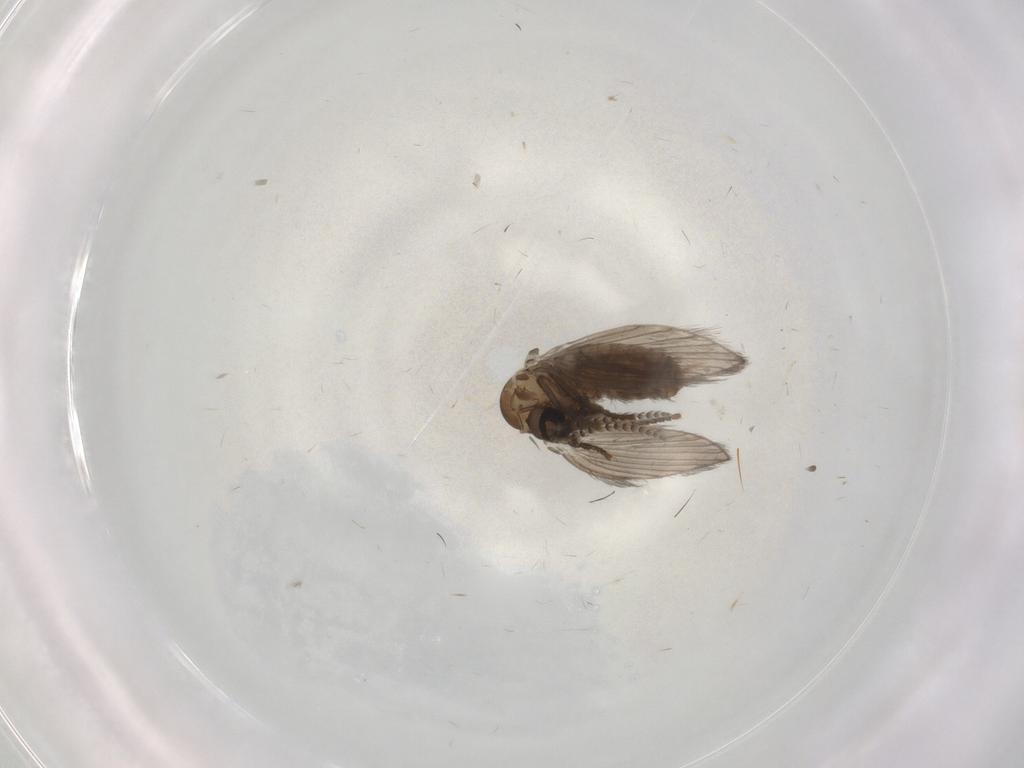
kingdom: Animalia
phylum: Arthropoda
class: Insecta
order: Diptera
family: Psychodidae
